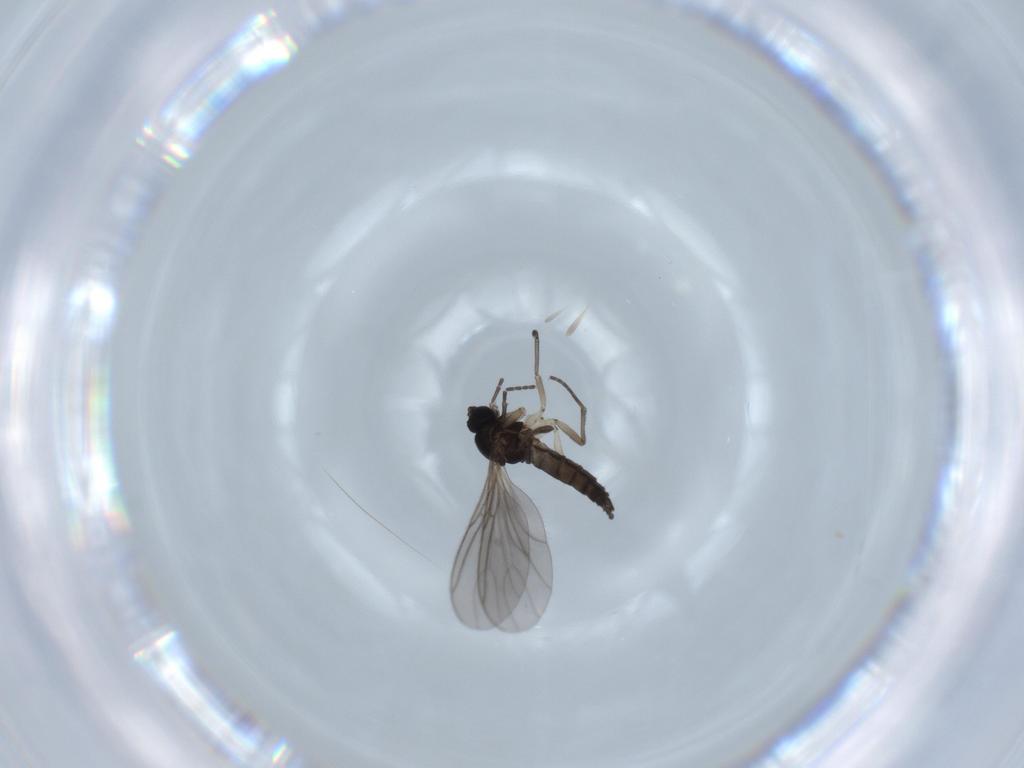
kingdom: Animalia
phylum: Arthropoda
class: Insecta
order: Diptera
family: Sciaridae
